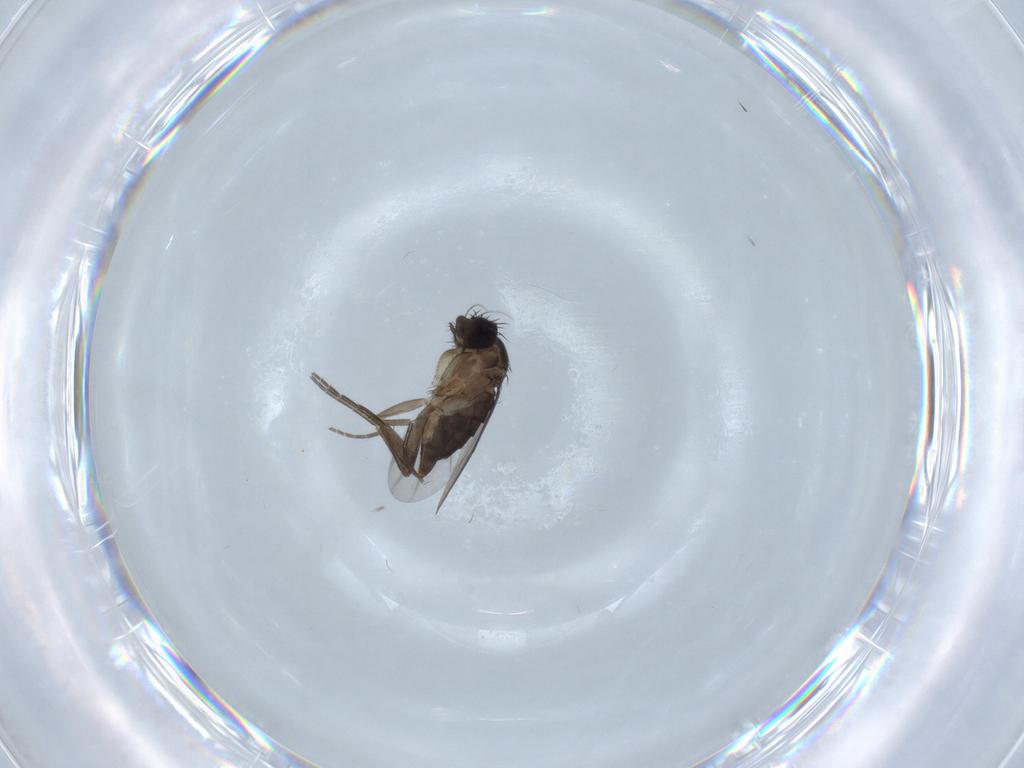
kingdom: Animalia
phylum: Arthropoda
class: Insecta
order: Diptera
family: Phoridae
